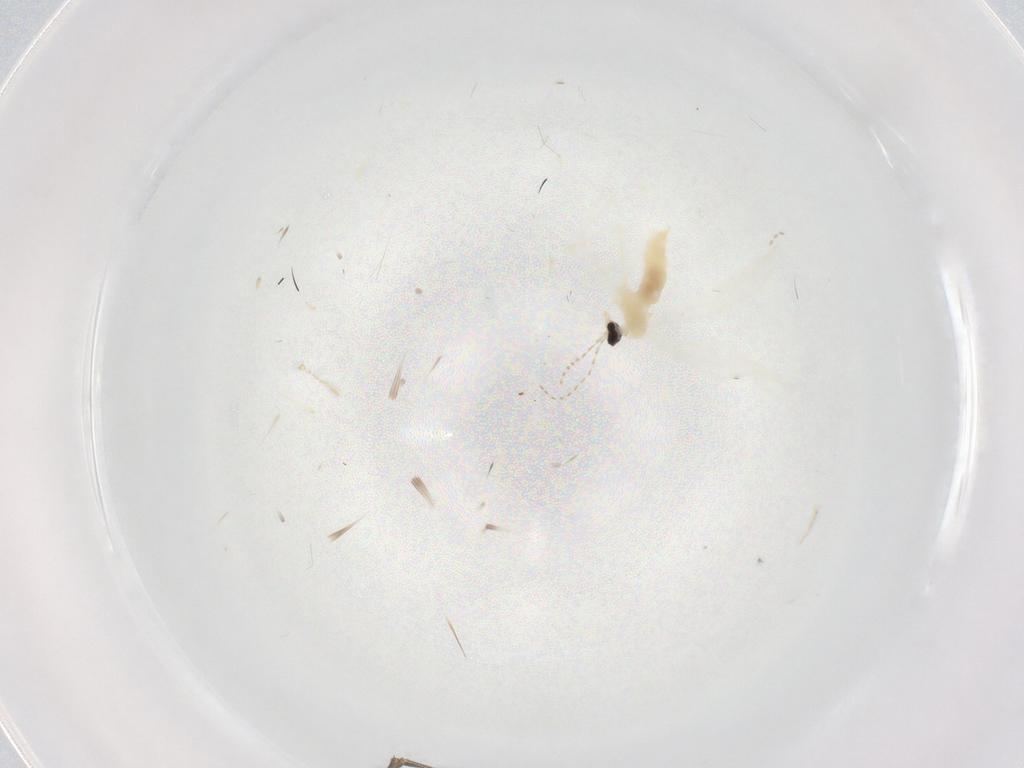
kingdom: Animalia
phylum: Arthropoda
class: Insecta
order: Diptera
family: Cecidomyiidae
